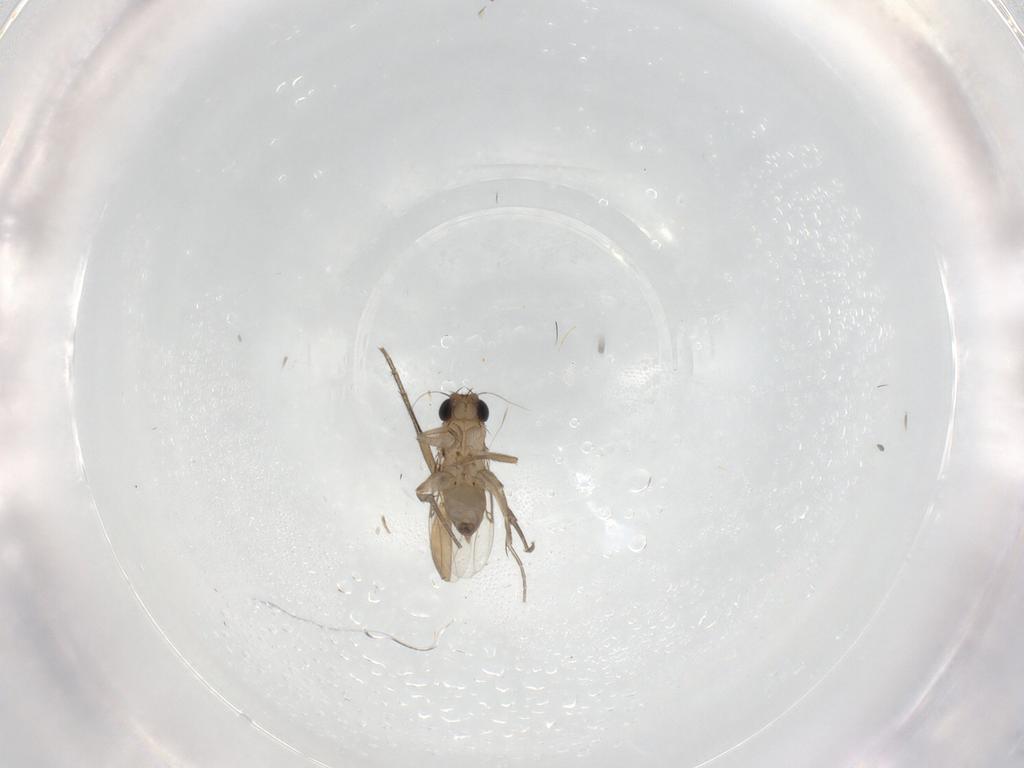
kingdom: Animalia
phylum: Arthropoda
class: Insecta
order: Diptera
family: Phoridae
